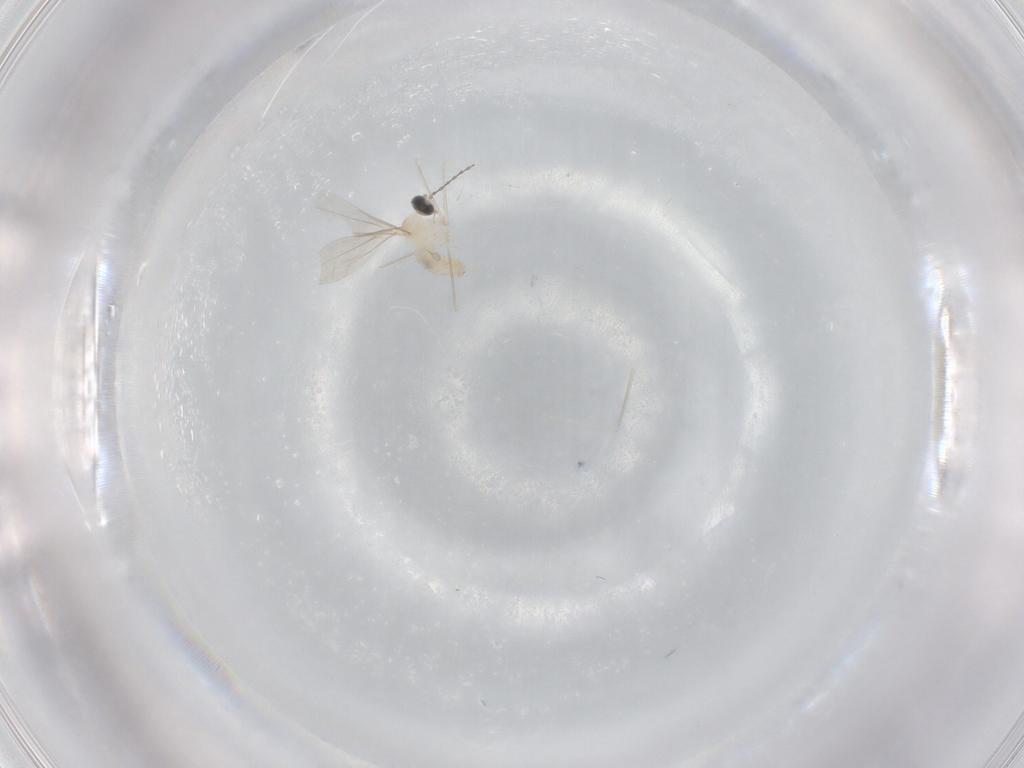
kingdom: Animalia
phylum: Arthropoda
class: Insecta
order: Diptera
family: Cecidomyiidae
